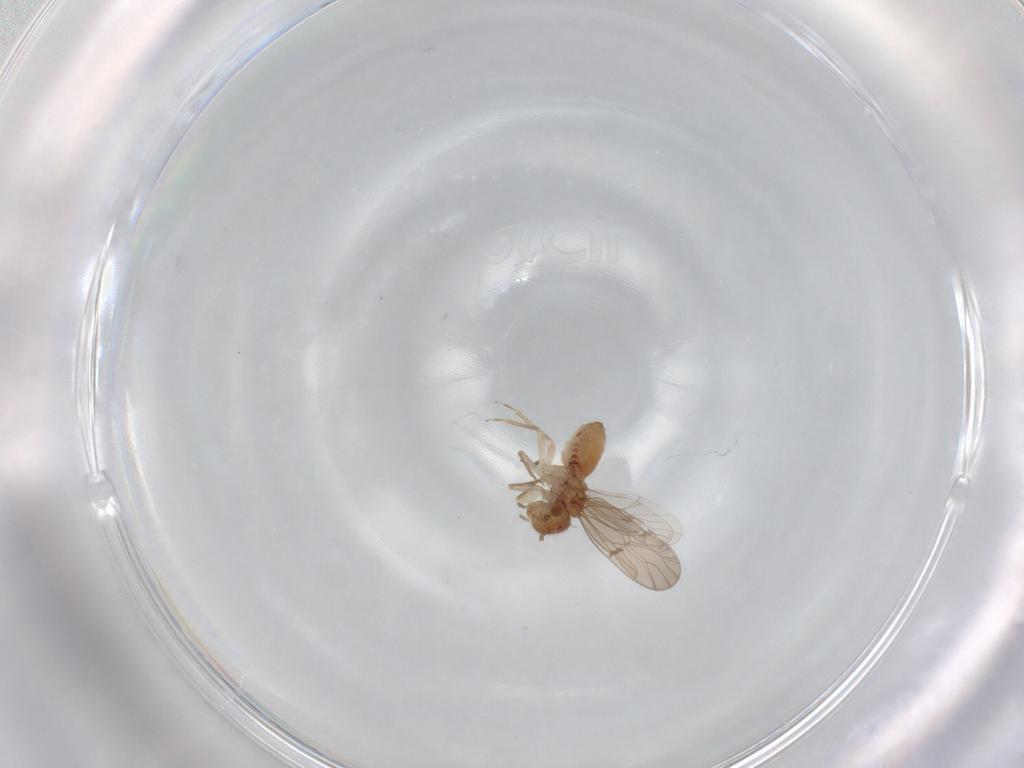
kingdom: Animalia
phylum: Arthropoda
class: Insecta
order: Psocodea
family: Ectopsocidae
